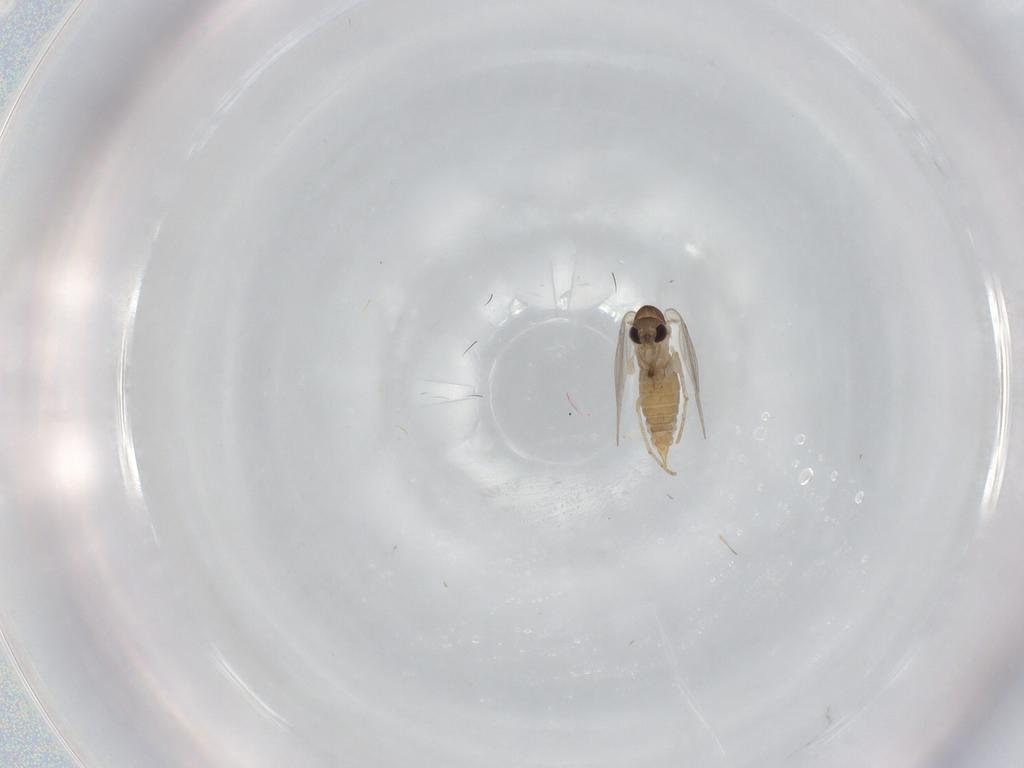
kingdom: Animalia
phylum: Arthropoda
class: Insecta
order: Diptera
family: Chironomidae
